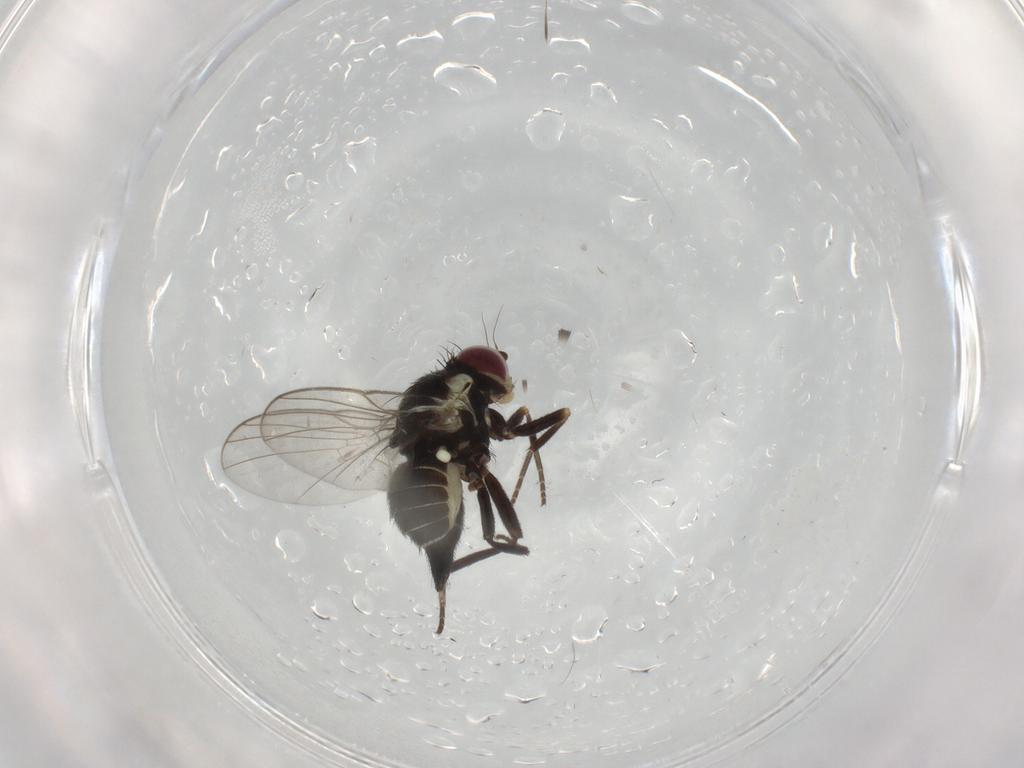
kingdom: Animalia
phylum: Arthropoda
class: Insecta
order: Diptera
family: Agromyzidae
